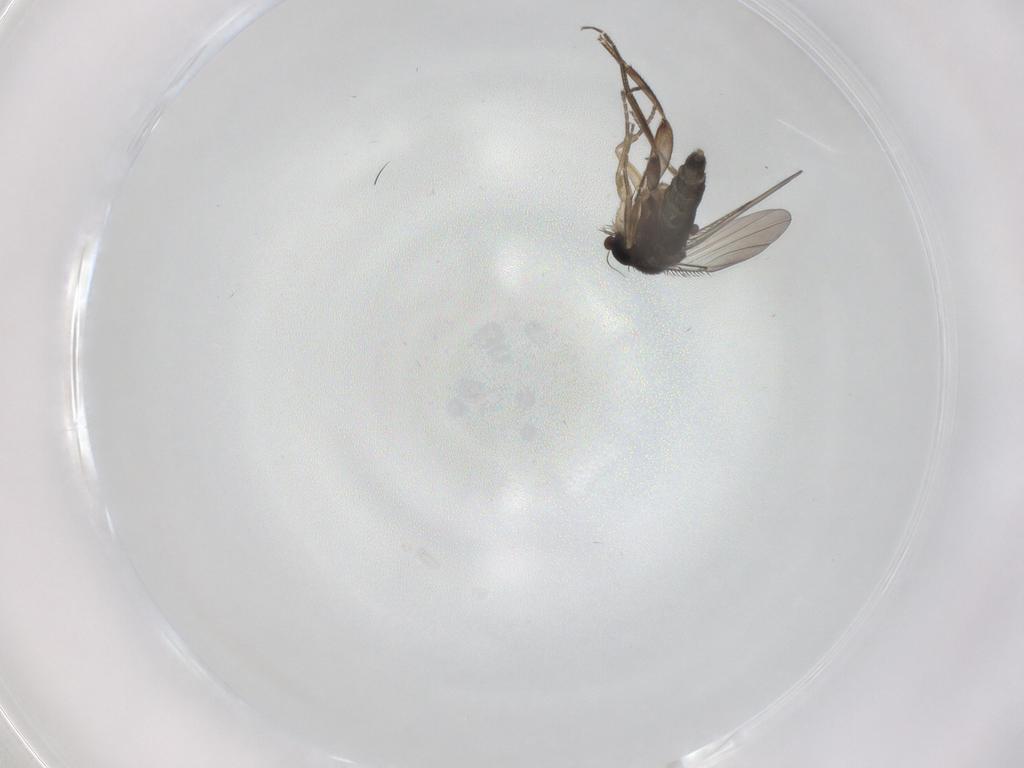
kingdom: Animalia
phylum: Arthropoda
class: Insecta
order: Diptera
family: Phoridae
